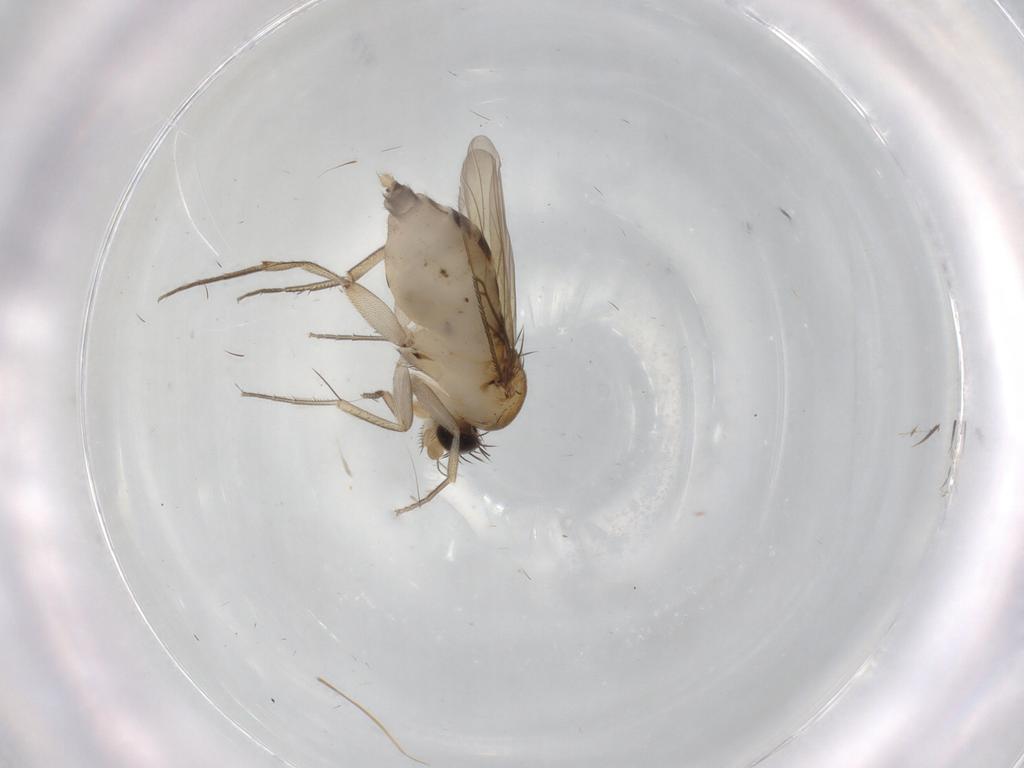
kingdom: Animalia
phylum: Arthropoda
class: Insecta
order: Diptera
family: Phoridae
